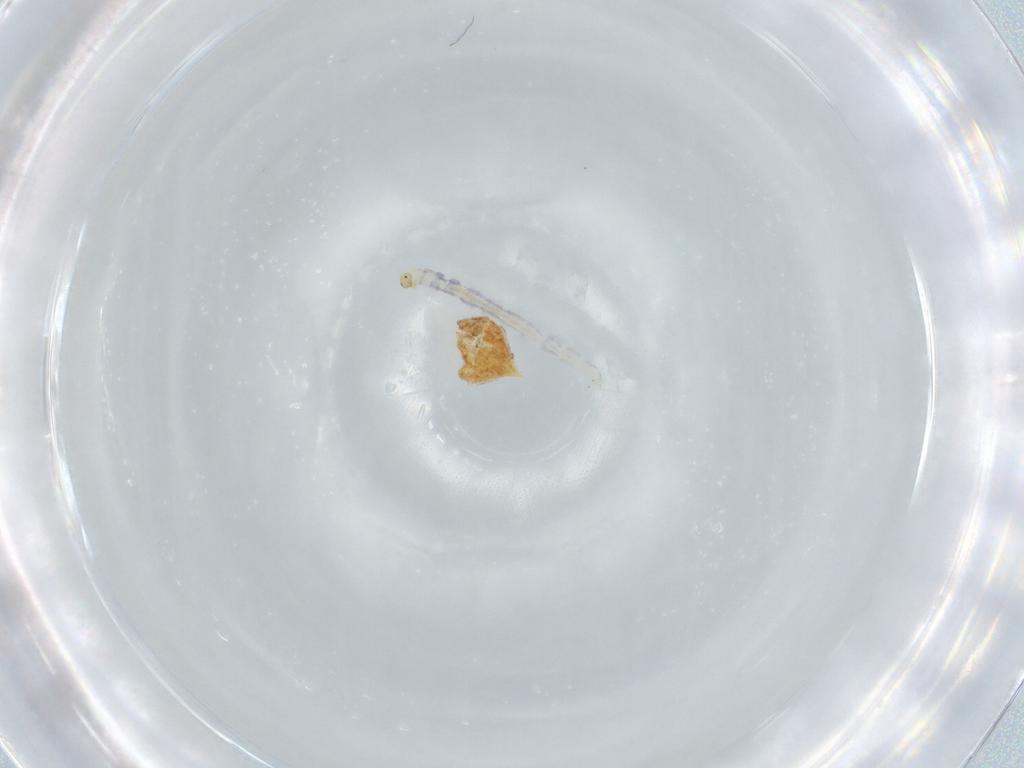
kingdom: Animalia
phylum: Arthropoda
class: Insecta
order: Diptera
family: Chironomidae
